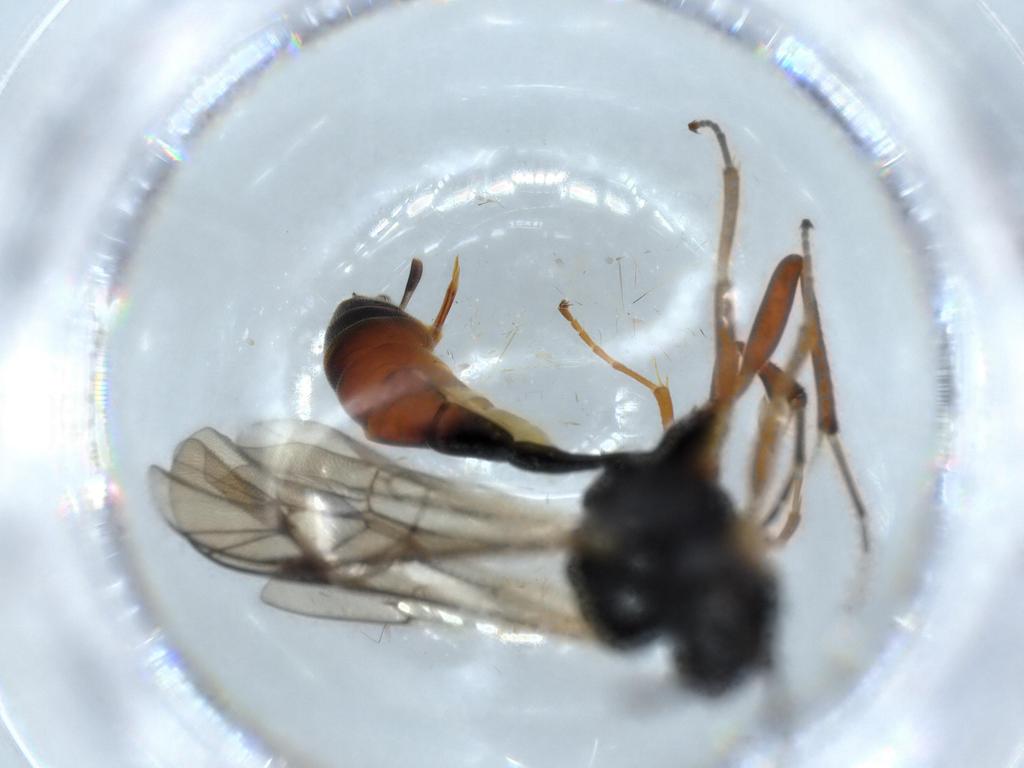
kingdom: Animalia
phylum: Arthropoda
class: Insecta
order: Hymenoptera
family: Ichneumonidae
